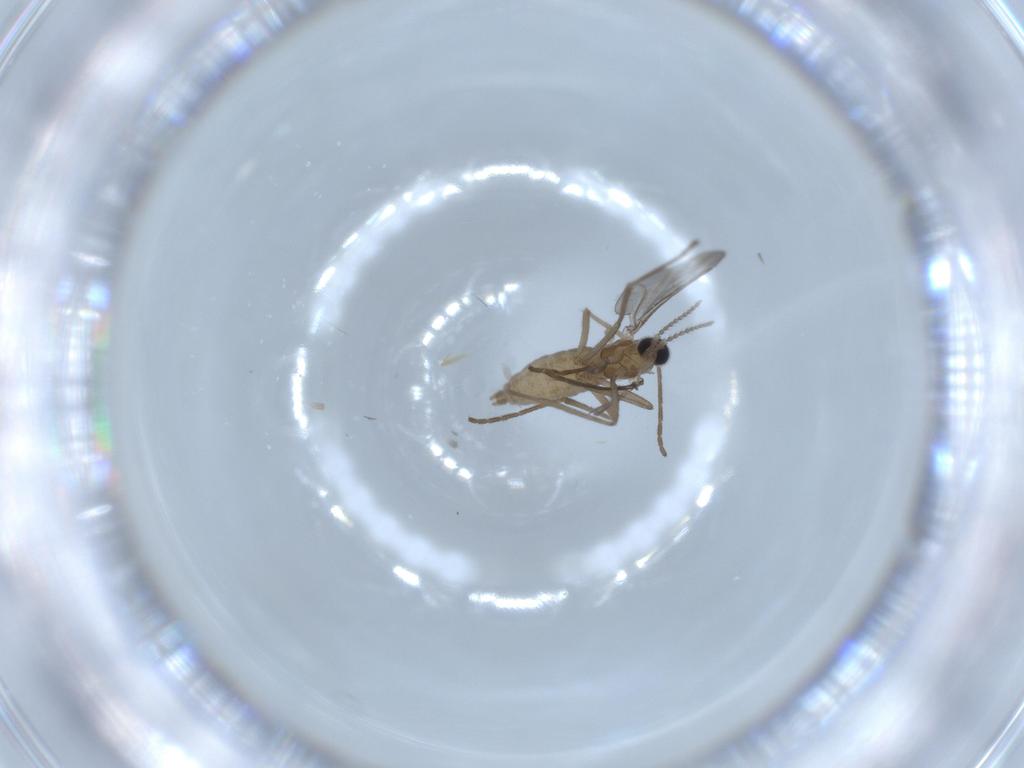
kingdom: Animalia
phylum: Arthropoda
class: Insecta
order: Diptera
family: Cecidomyiidae
